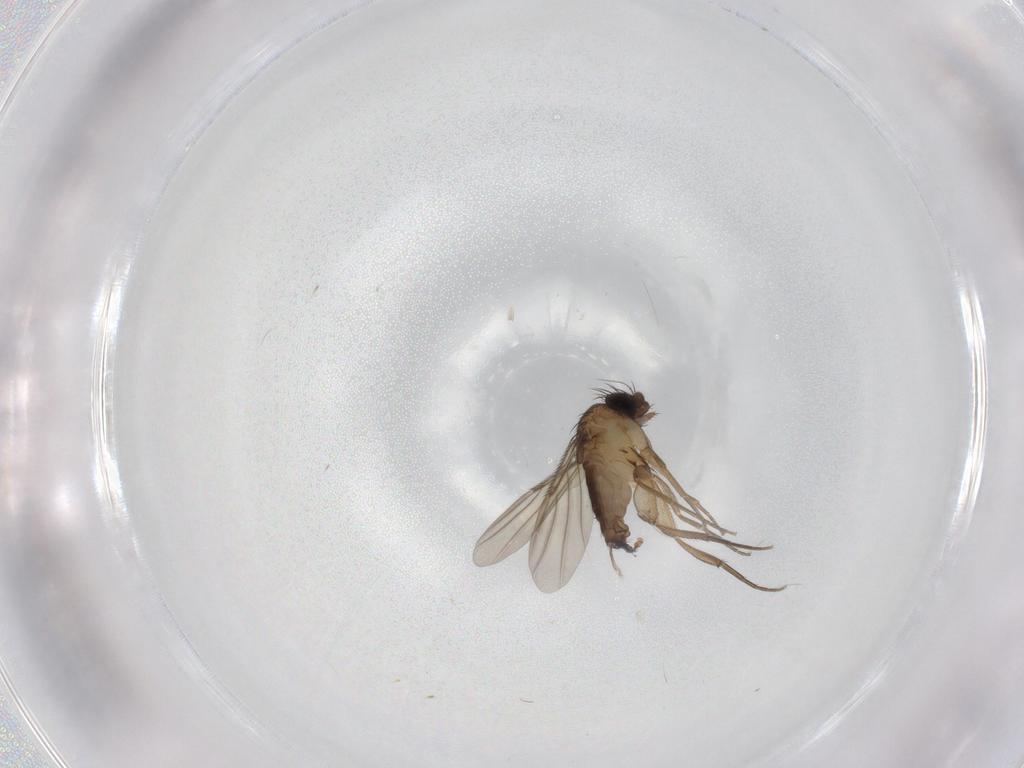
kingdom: Animalia
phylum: Arthropoda
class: Insecta
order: Diptera
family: Phoridae
